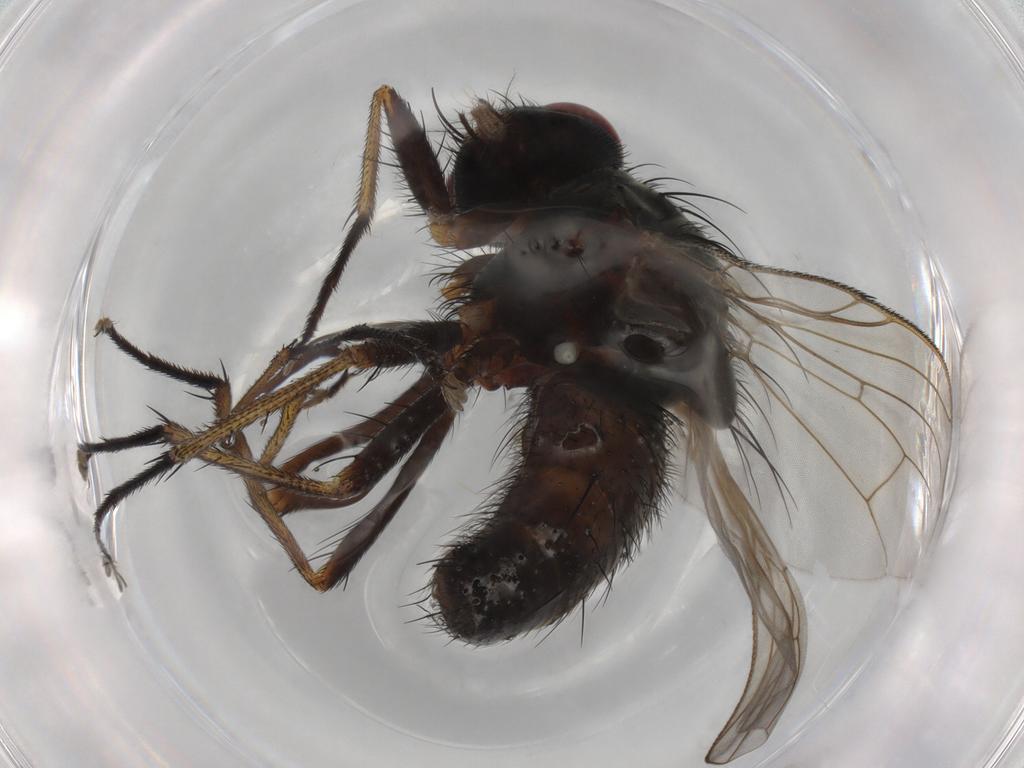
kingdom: Animalia
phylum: Arthropoda
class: Insecta
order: Diptera
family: Muscidae
